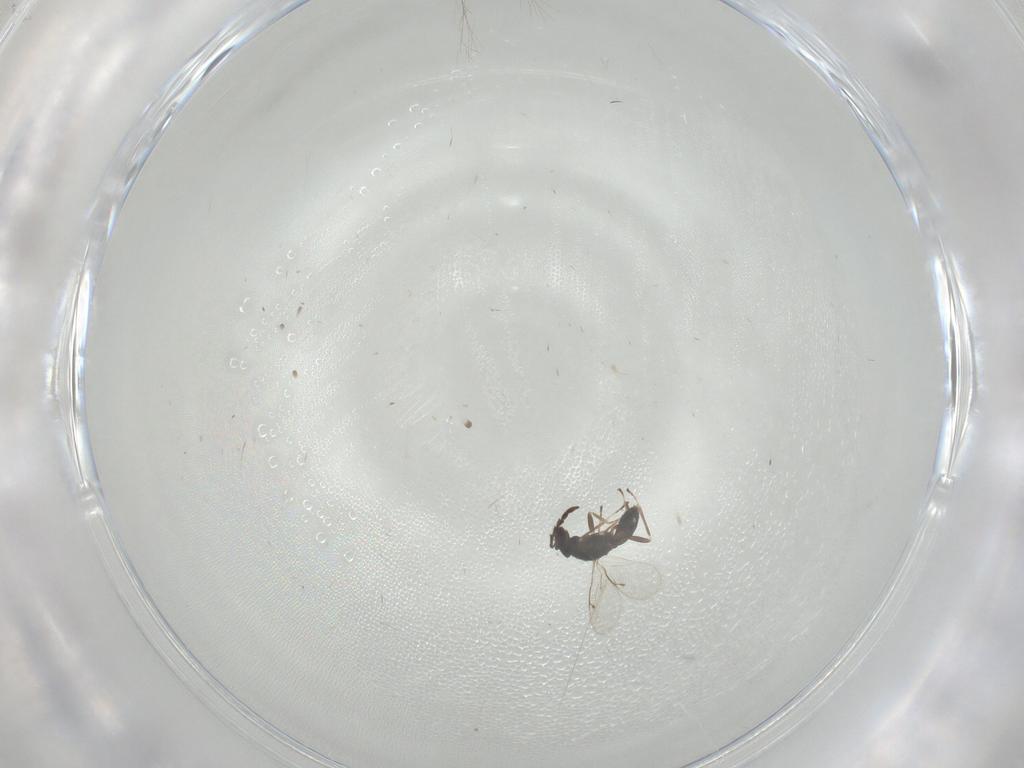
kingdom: Animalia
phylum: Arthropoda
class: Insecta
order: Hymenoptera
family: Eulophidae
